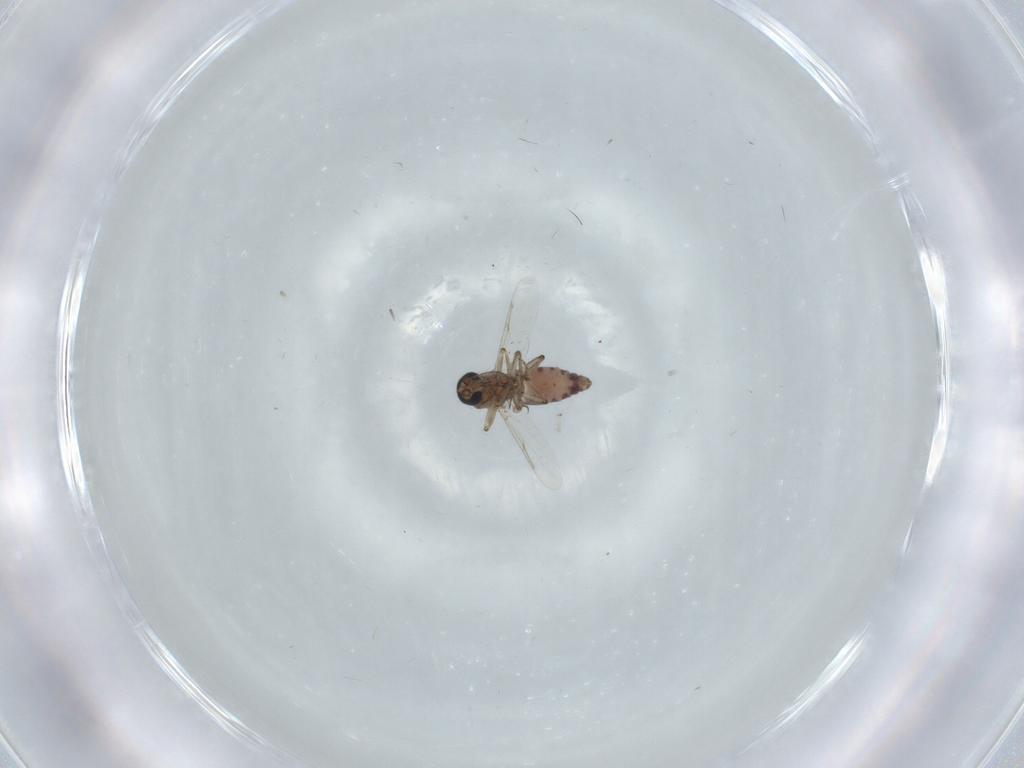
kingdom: Animalia
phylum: Arthropoda
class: Insecta
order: Diptera
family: Ceratopogonidae
